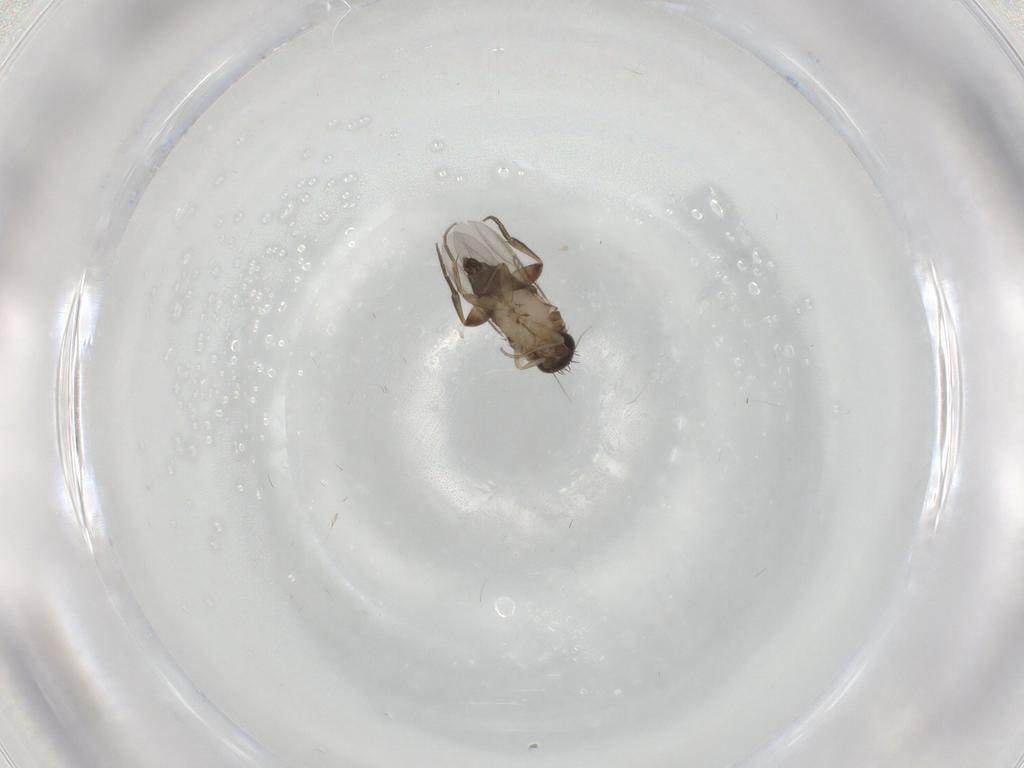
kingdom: Animalia
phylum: Arthropoda
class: Insecta
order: Diptera
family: Phoridae
